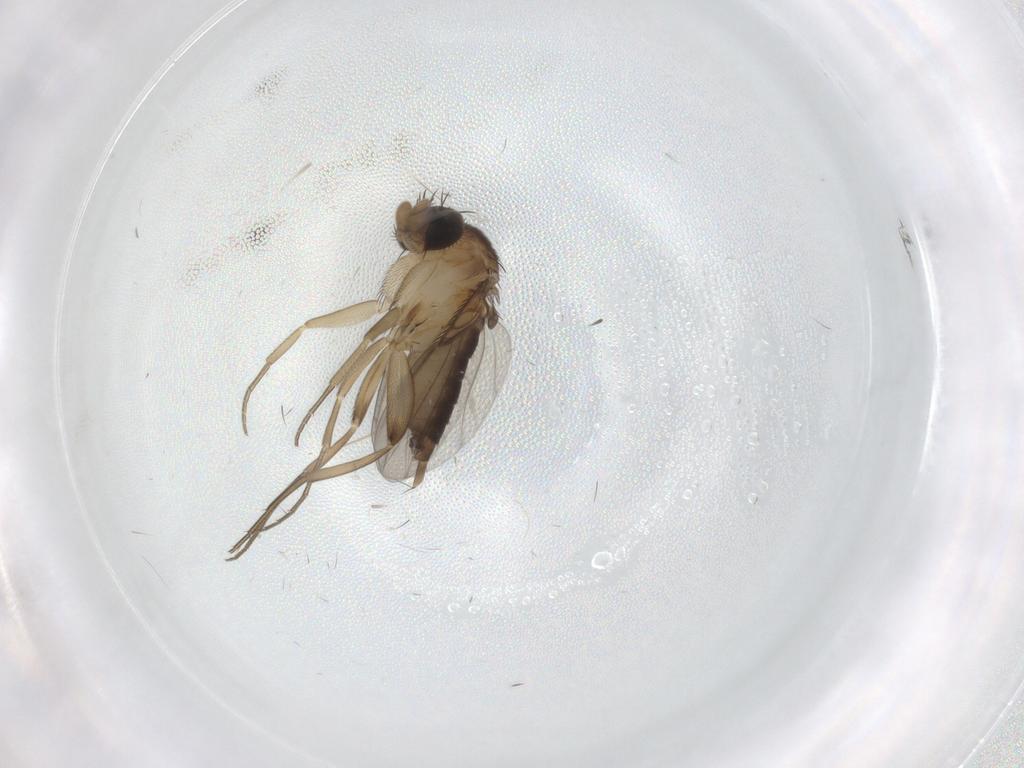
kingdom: Animalia
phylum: Arthropoda
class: Insecta
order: Diptera
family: Phoridae
